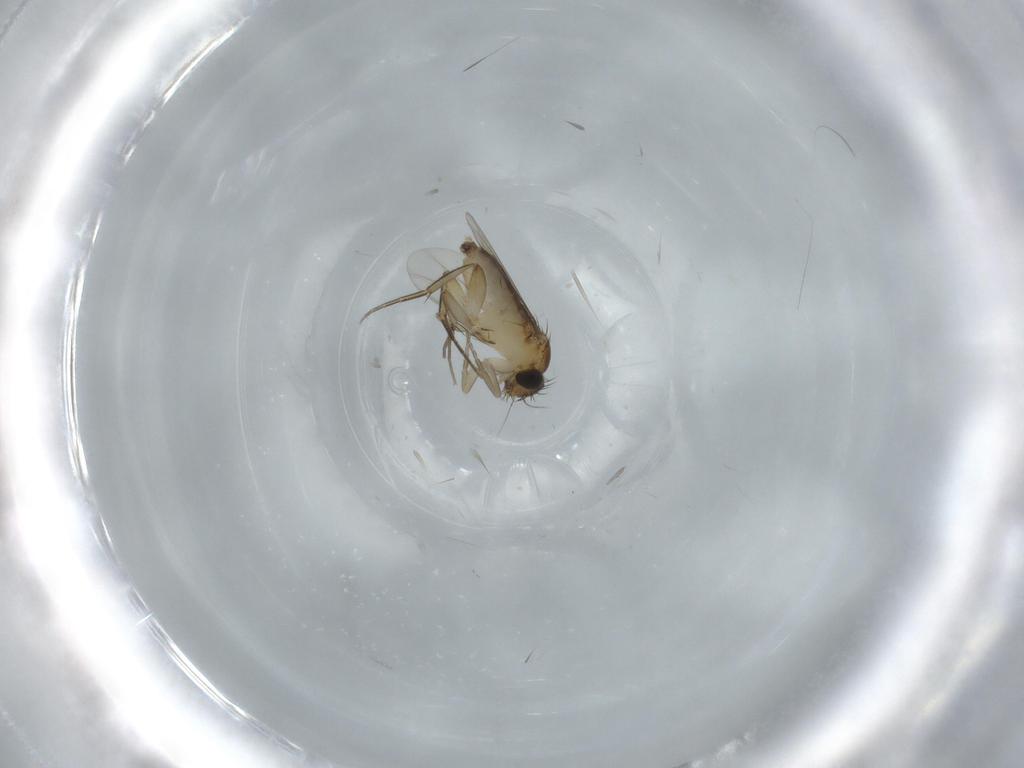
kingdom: Animalia
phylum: Arthropoda
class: Insecta
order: Diptera
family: Phoridae
